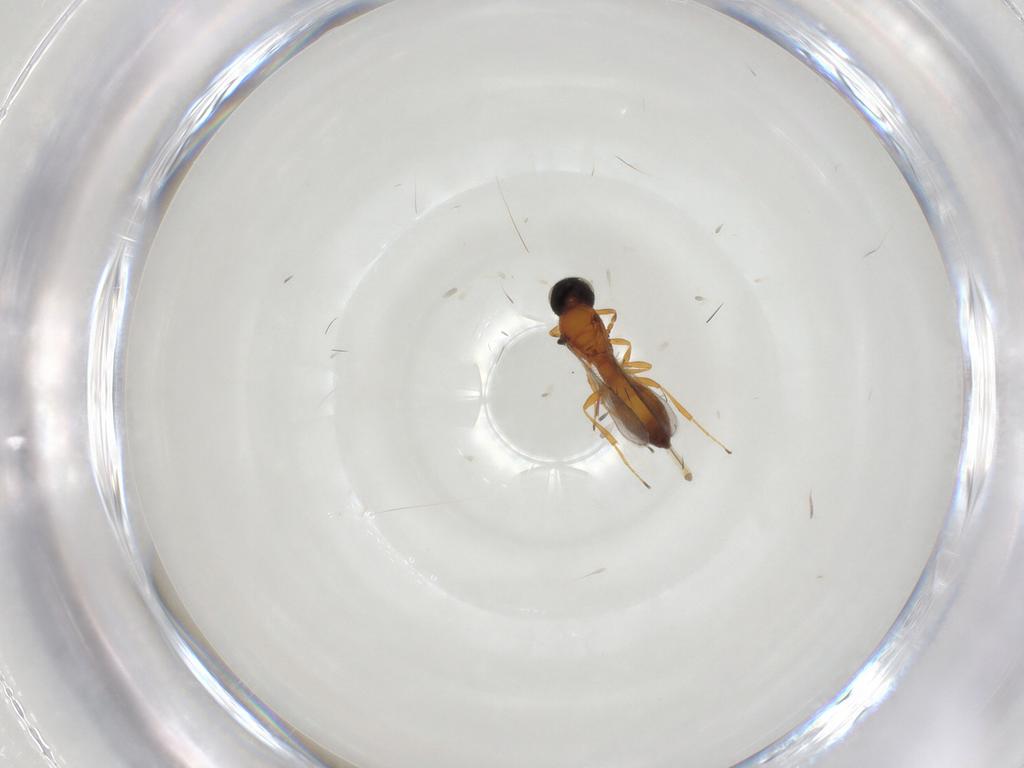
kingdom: Animalia
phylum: Arthropoda
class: Insecta
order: Hymenoptera
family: Scelionidae
